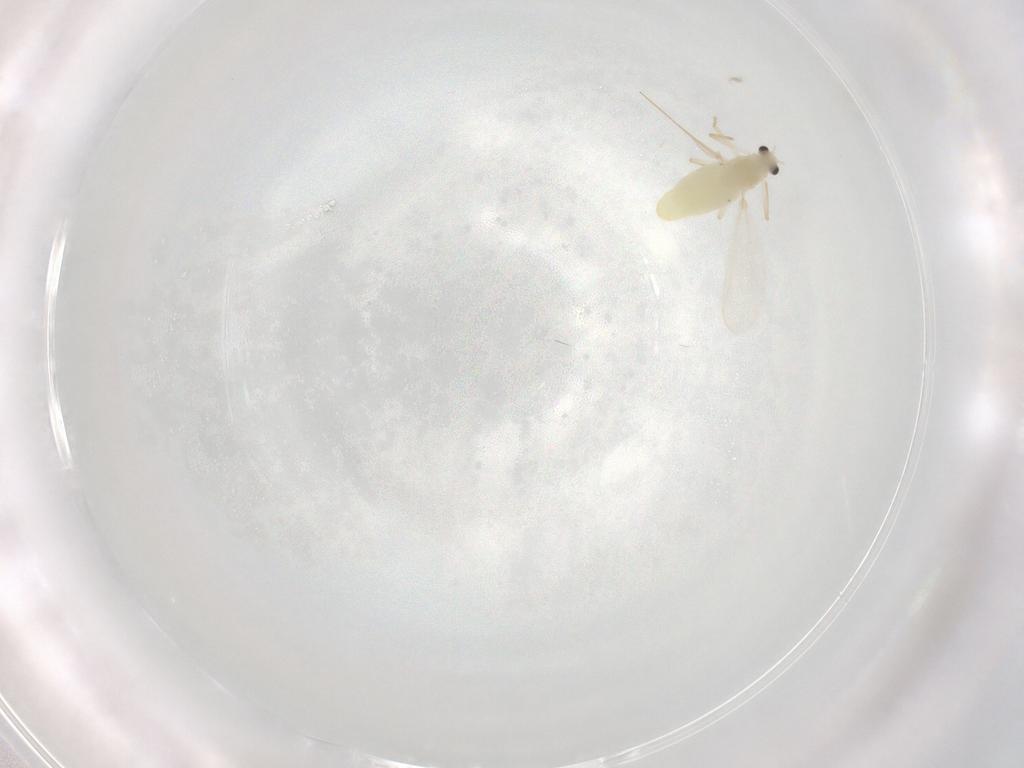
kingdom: Animalia
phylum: Arthropoda
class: Insecta
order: Diptera
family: Chironomidae
